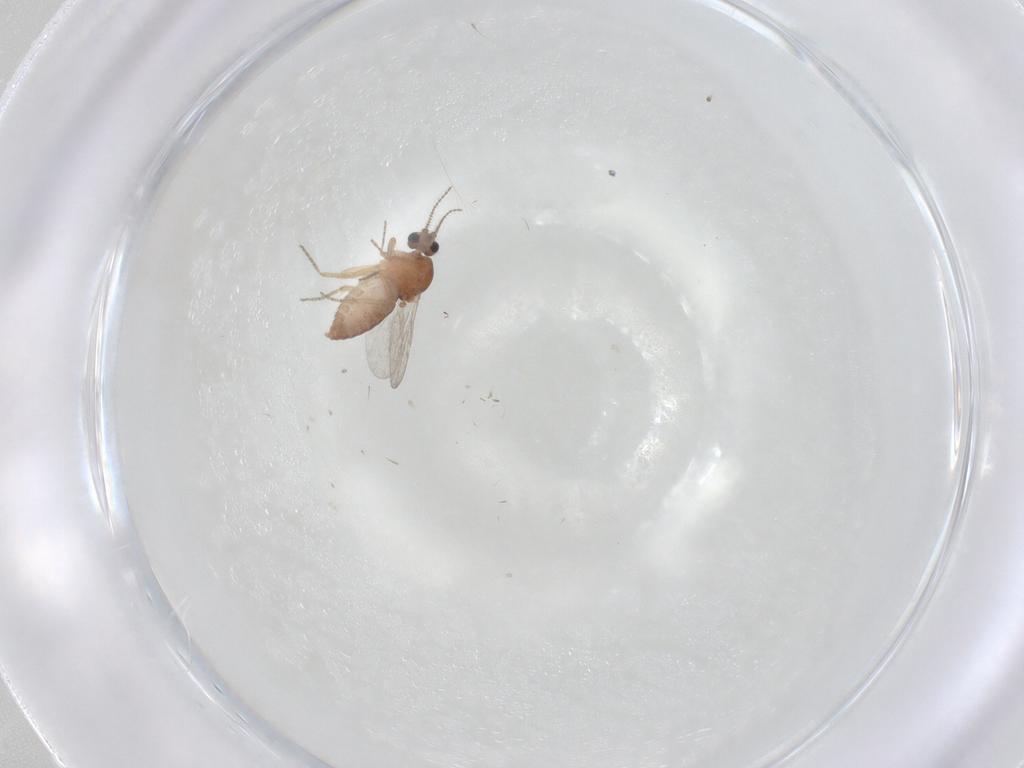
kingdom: Animalia
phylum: Arthropoda
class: Insecta
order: Diptera
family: Ceratopogonidae
